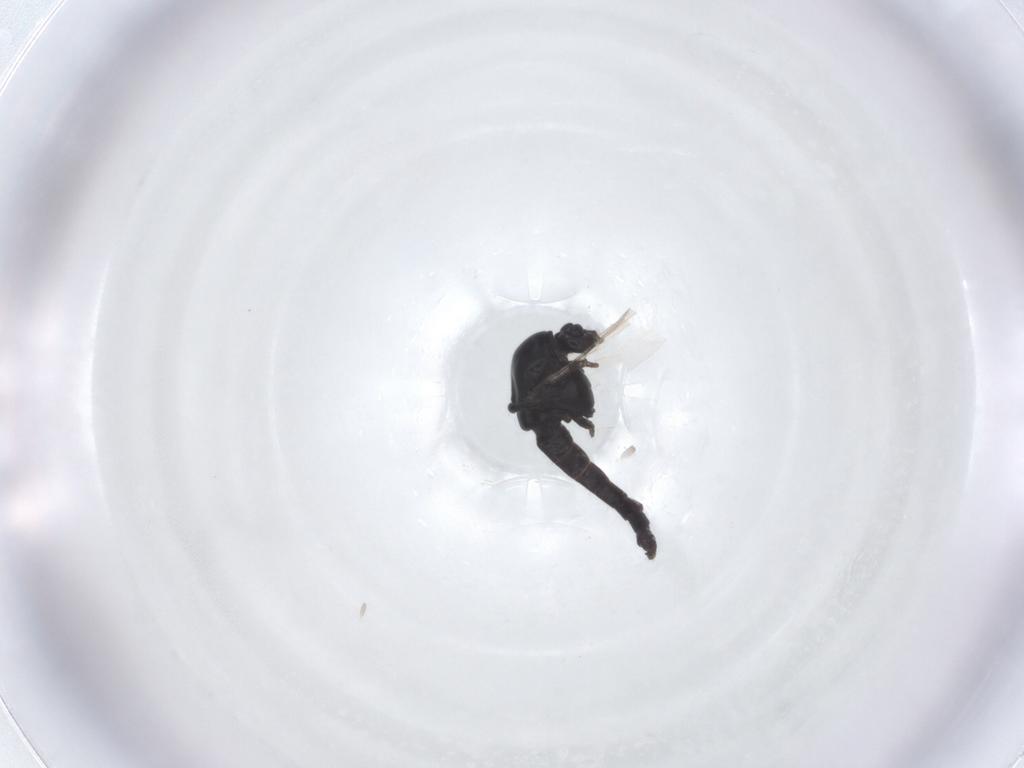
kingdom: Animalia
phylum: Arthropoda
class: Insecta
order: Diptera
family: Chironomidae
